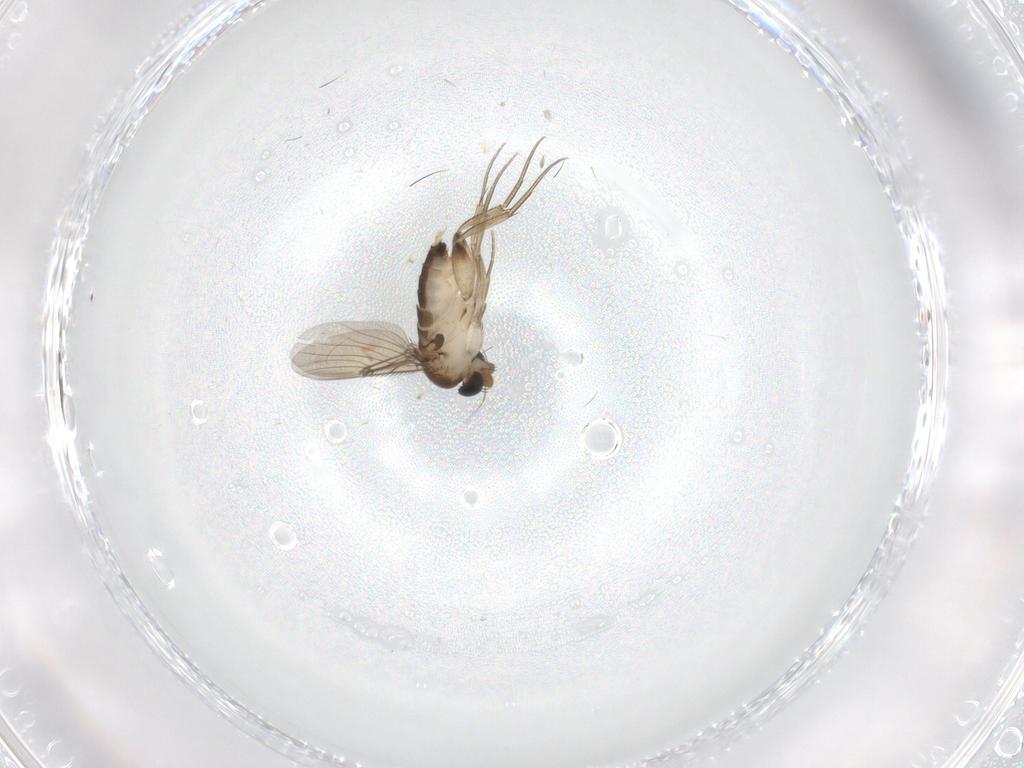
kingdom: Animalia
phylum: Arthropoda
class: Insecta
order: Diptera
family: Phoridae
